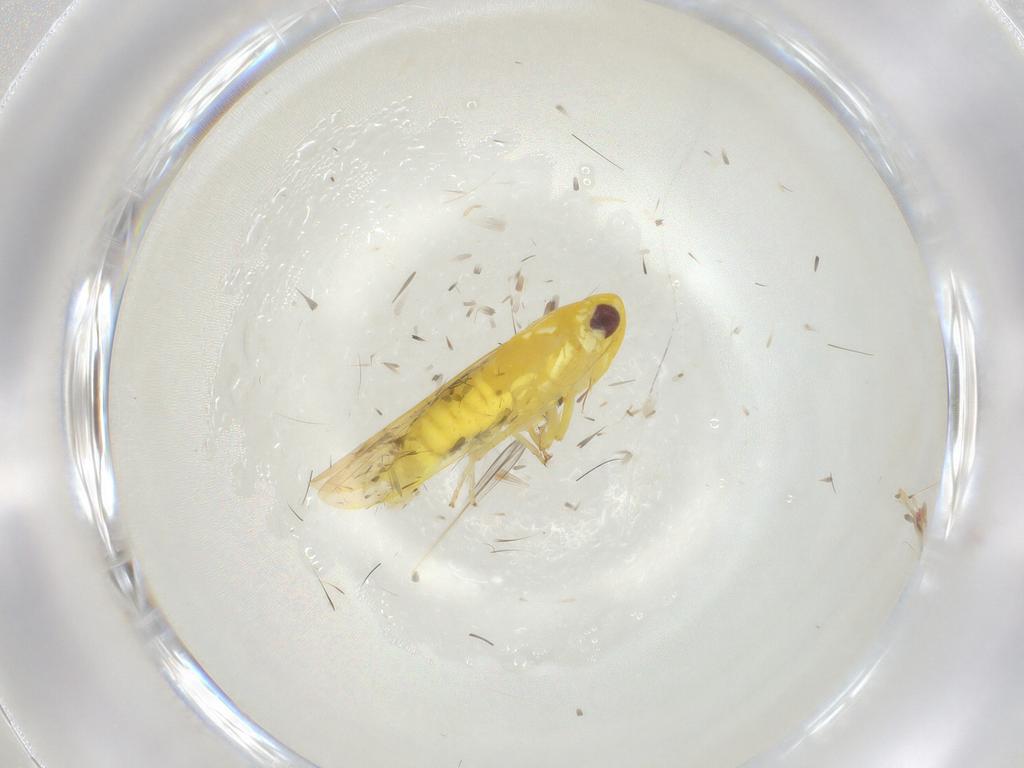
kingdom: Animalia
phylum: Arthropoda
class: Insecta
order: Hemiptera
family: Cicadellidae
